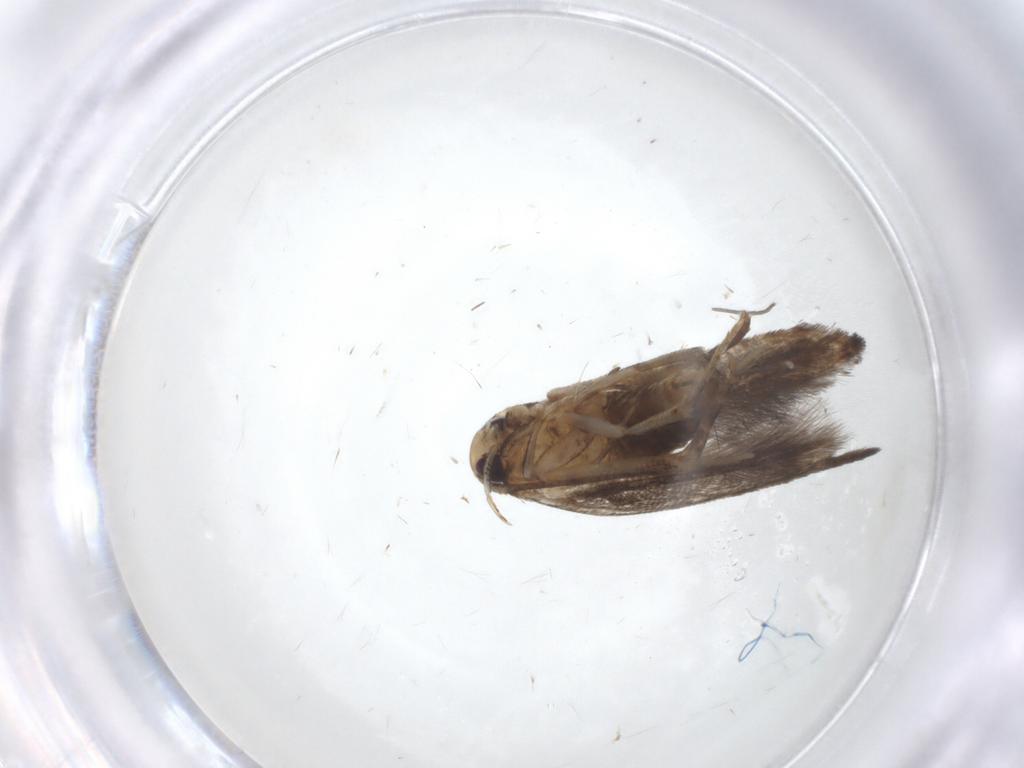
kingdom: Animalia
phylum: Arthropoda
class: Insecta
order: Lepidoptera
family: Cosmopterigidae
